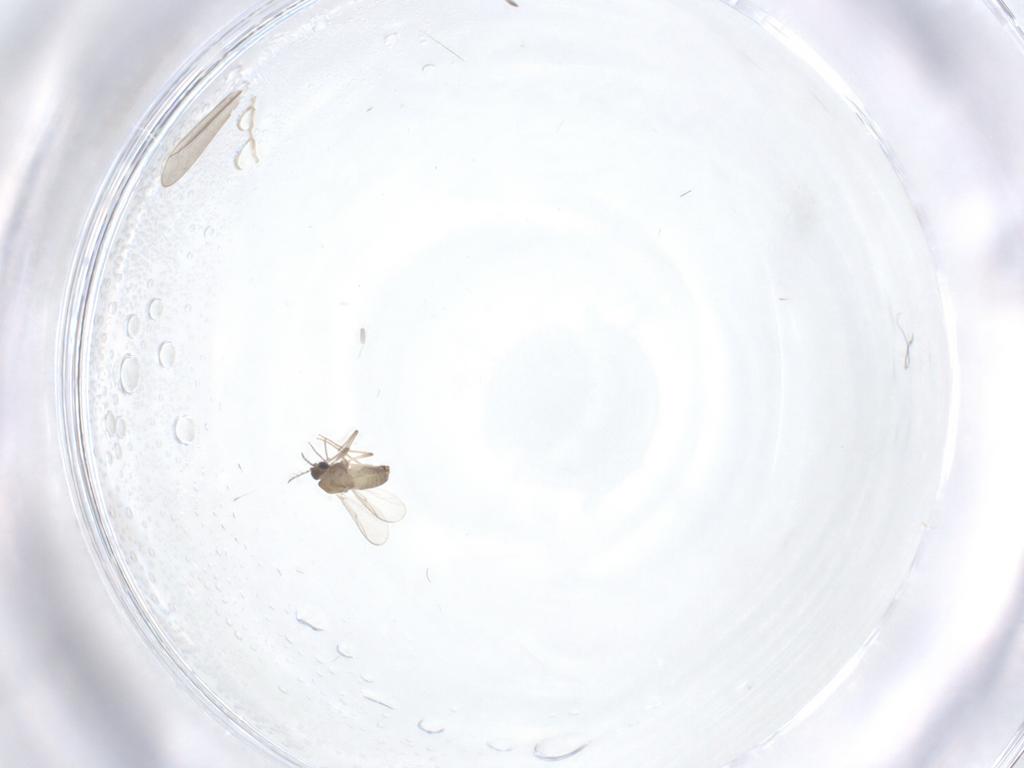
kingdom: Animalia
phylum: Arthropoda
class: Insecta
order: Diptera
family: Chironomidae
